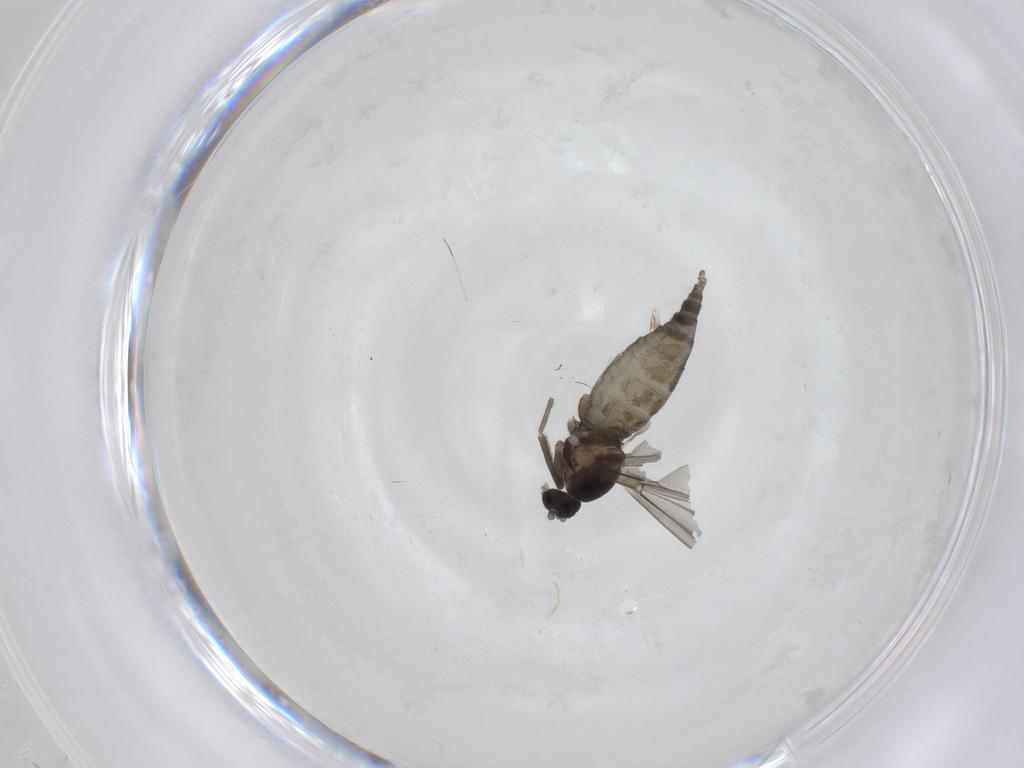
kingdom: Animalia
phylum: Arthropoda
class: Insecta
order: Diptera
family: Cecidomyiidae
